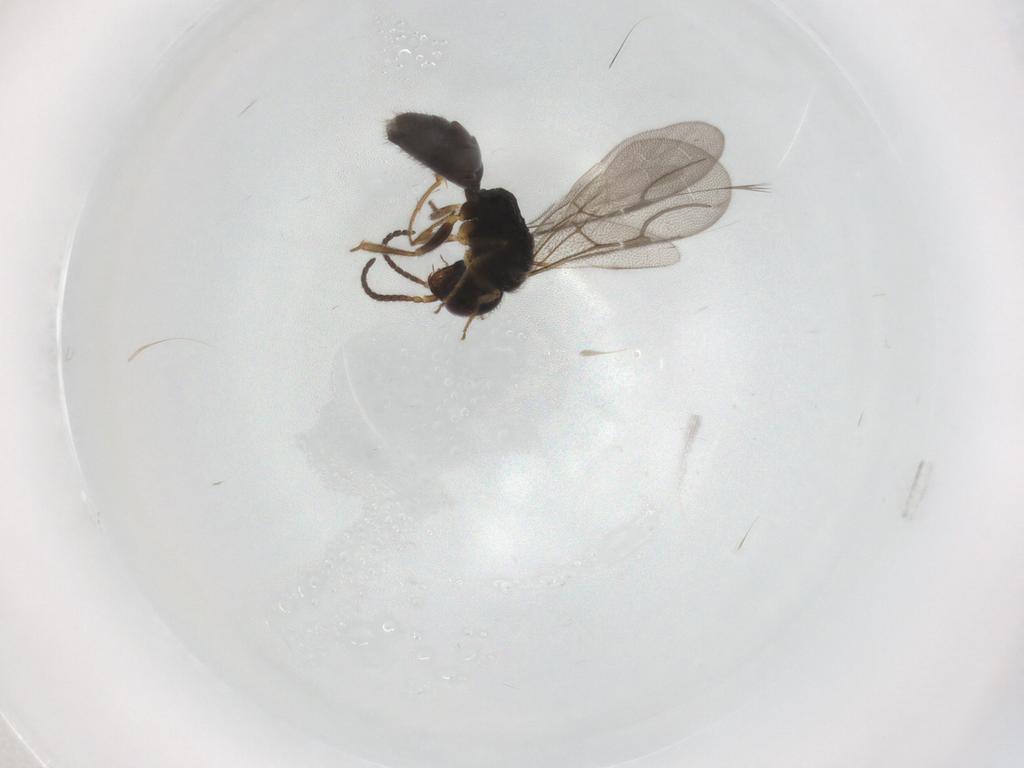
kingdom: Animalia
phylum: Arthropoda
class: Insecta
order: Hymenoptera
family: Bethylidae
